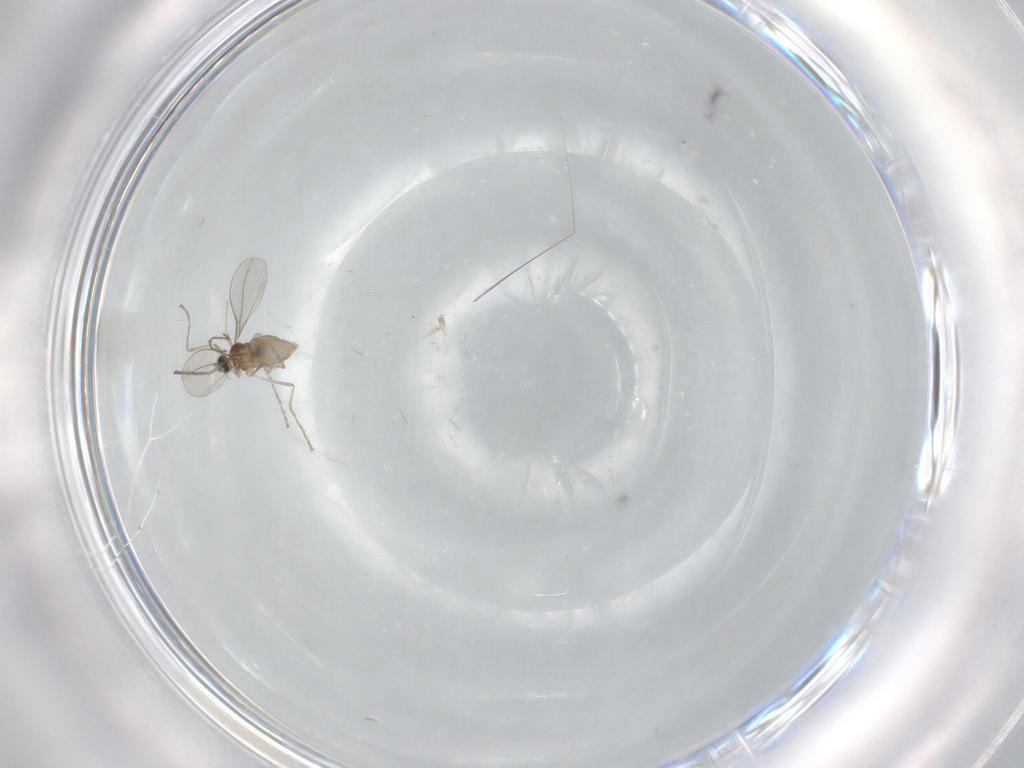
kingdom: Animalia
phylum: Arthropoda
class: Insecta
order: Diptera
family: Cecidomyiidae
